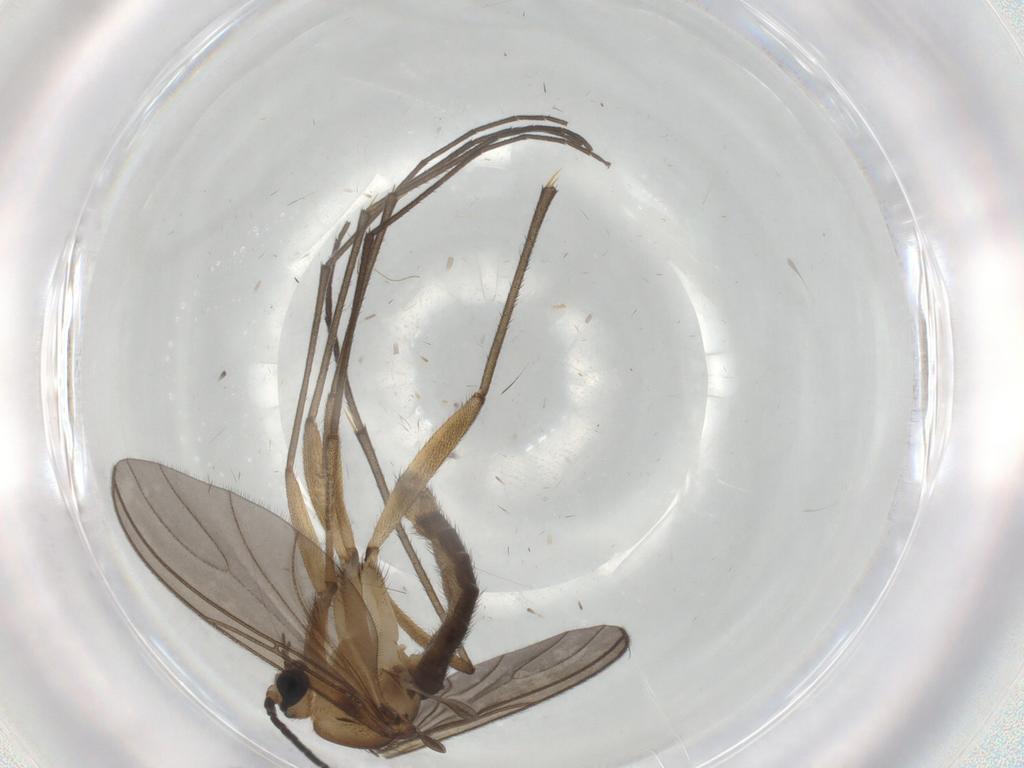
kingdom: Animalia
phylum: Arthropoda
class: Insecta
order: Diptera
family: Sciaridae
